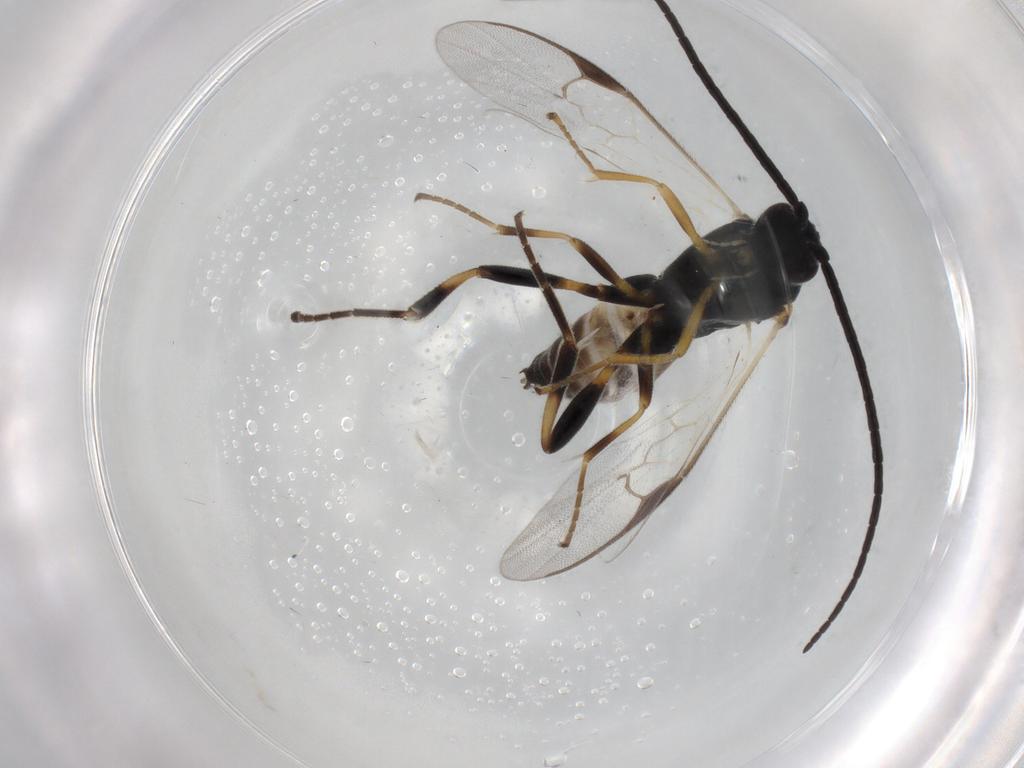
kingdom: Animalia
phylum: Arthropoda
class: Insecta
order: Hymenoptera
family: Braconidae
